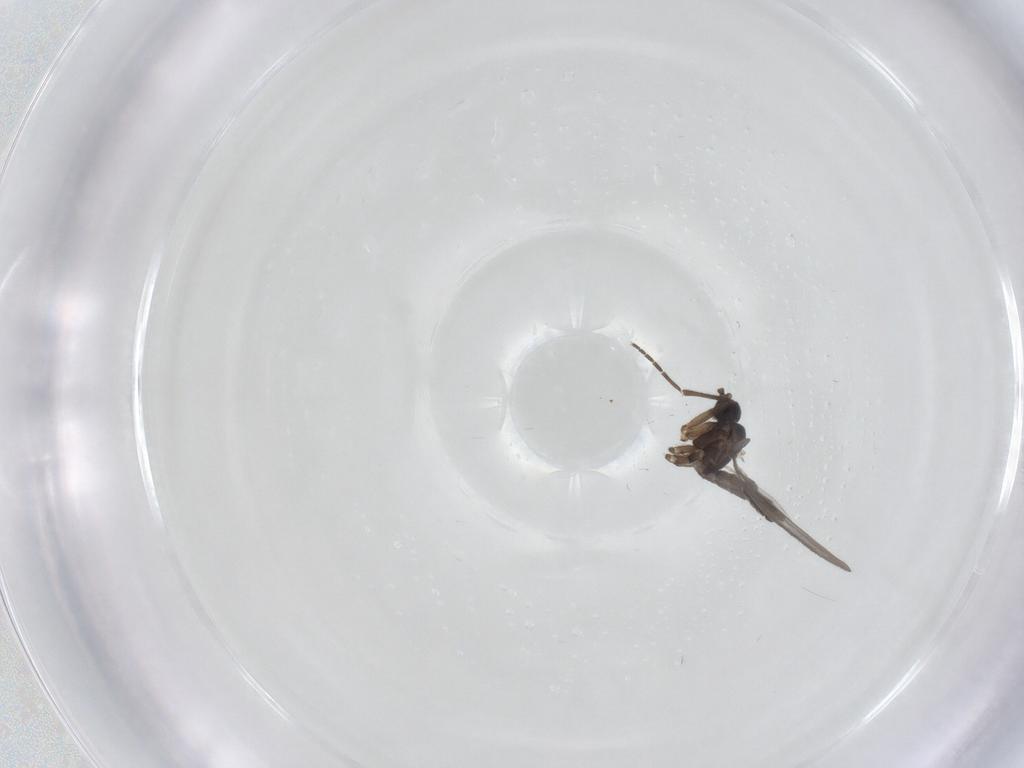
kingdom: Animalia
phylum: Arthropoda
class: Insecta
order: Diptera
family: Sciaridae
